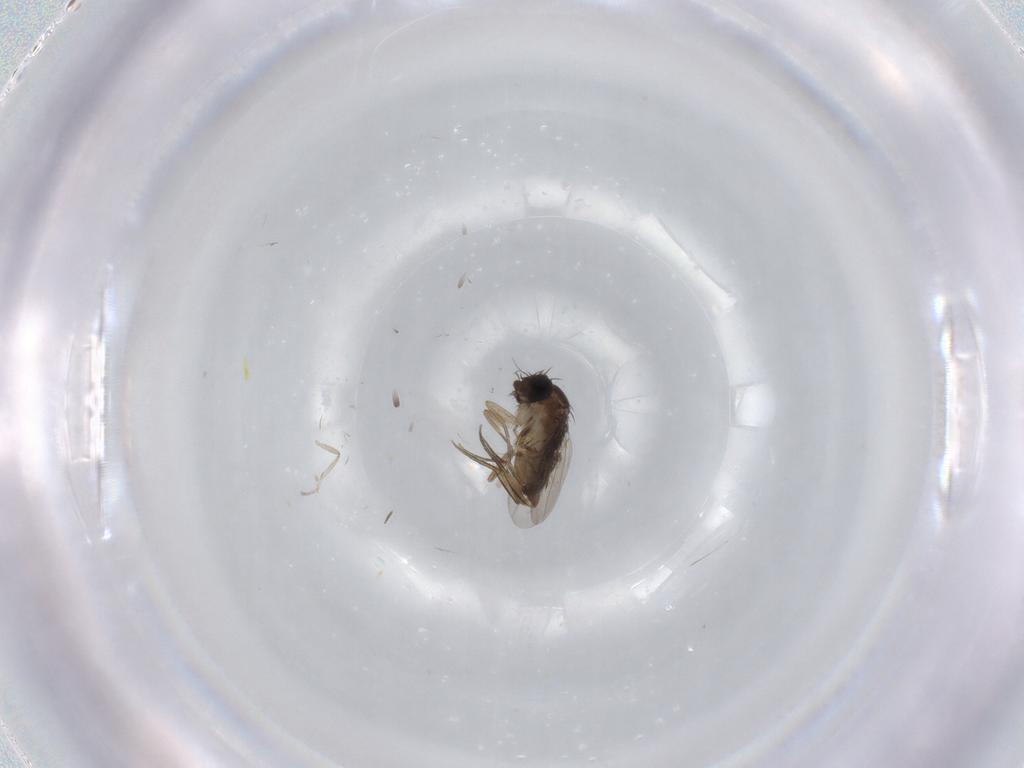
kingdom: Animalia
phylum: Arthropoda
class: Insecta
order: Diptera
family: Phoridae
